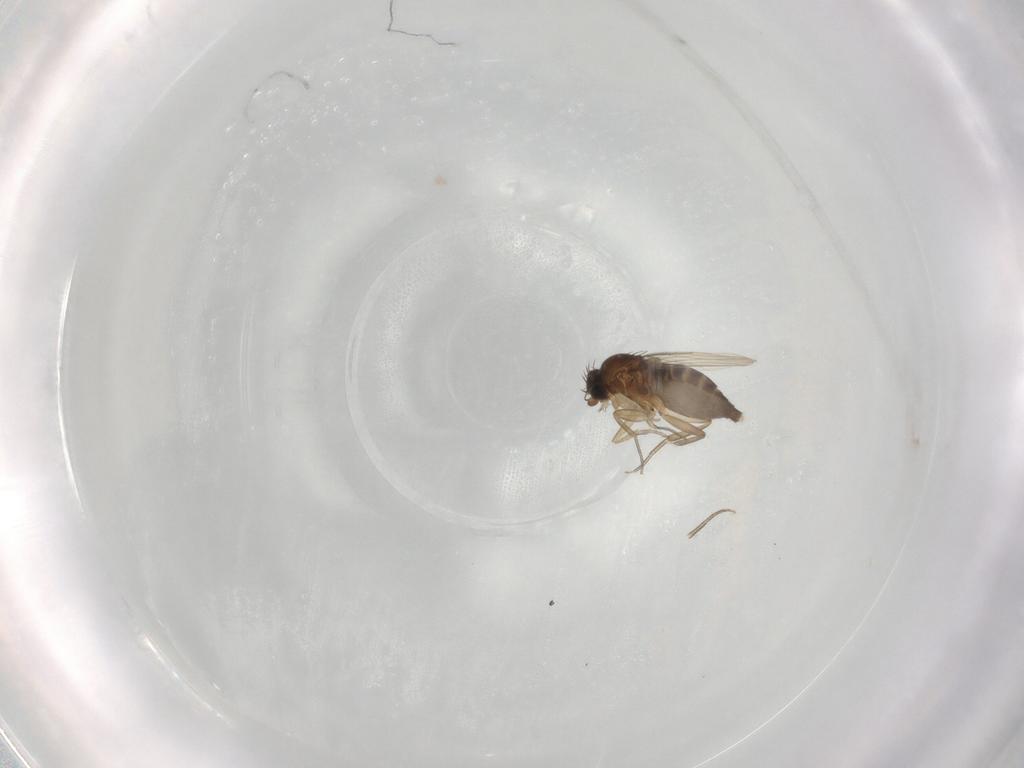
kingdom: Animalia
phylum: Arthropoda
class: Insecta
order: Diptera
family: Phoridae
